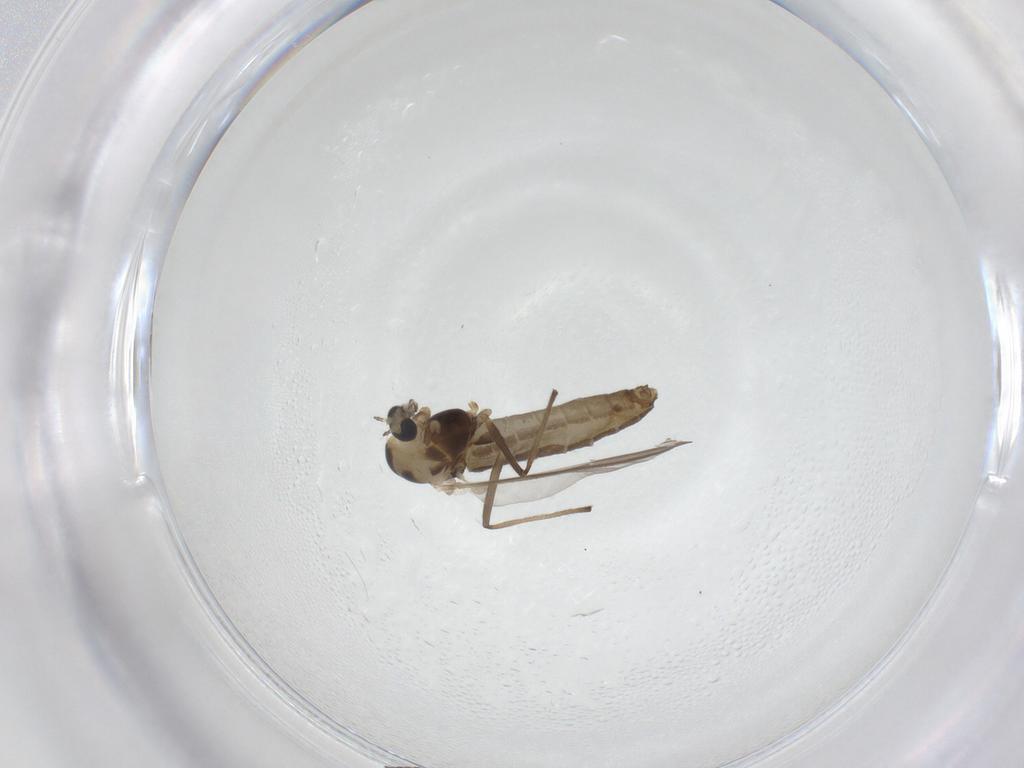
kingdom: Animalia
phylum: Arthropoda
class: Insecta
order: Diptera
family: Chironomidae
